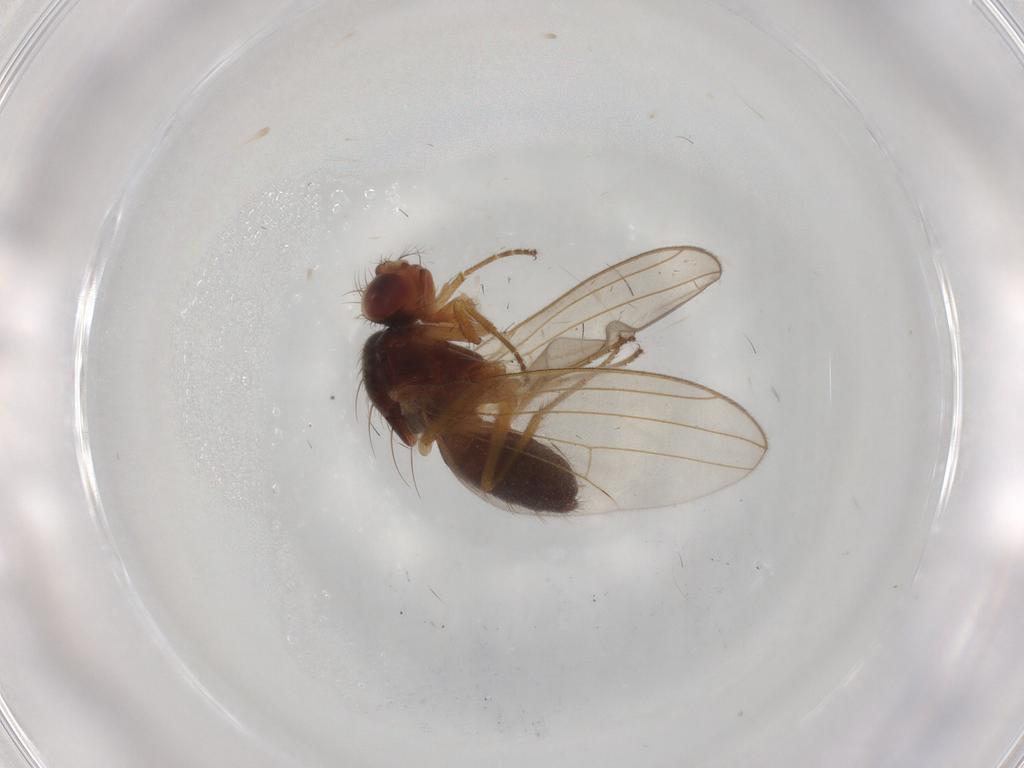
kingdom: Animalia
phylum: Arthropoda
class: Insecta
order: Diptera
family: Drosophilidae
